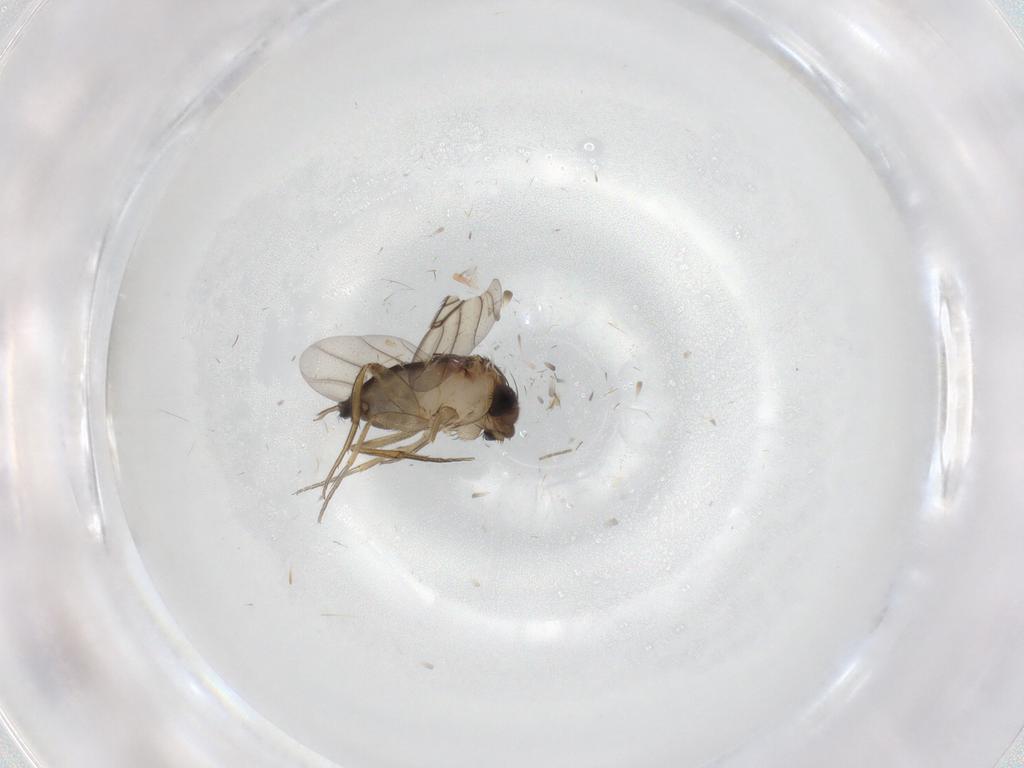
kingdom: Animalia
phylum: Arthropoda
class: Insecta
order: Diptera
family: Phoridae
